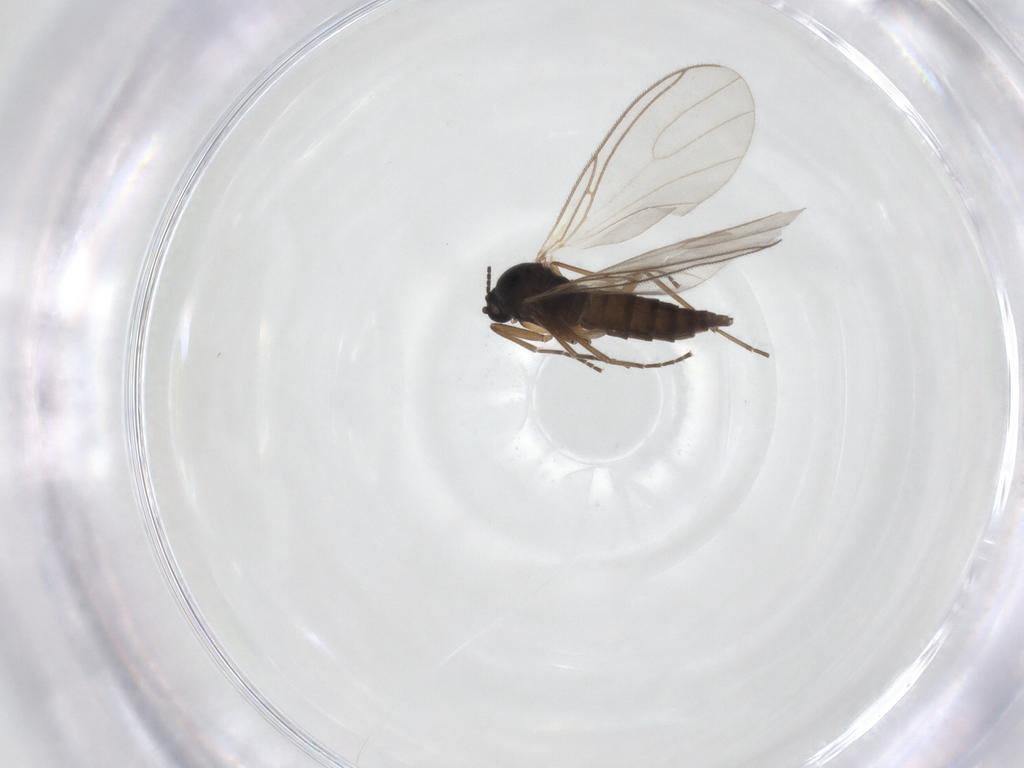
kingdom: Animalia
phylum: Arthropoda
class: Insecta
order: Diptera
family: Sciaridae
